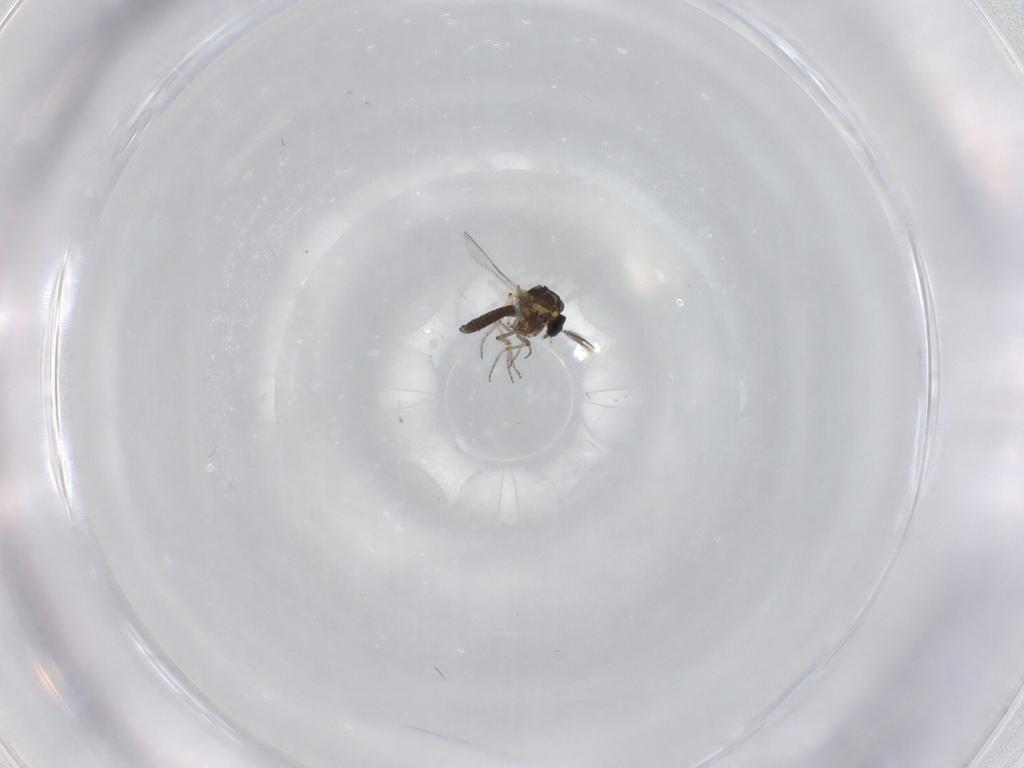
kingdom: Animalia
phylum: Arthropoda
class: Insecta
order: Diptera
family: Ceratopogonidae
